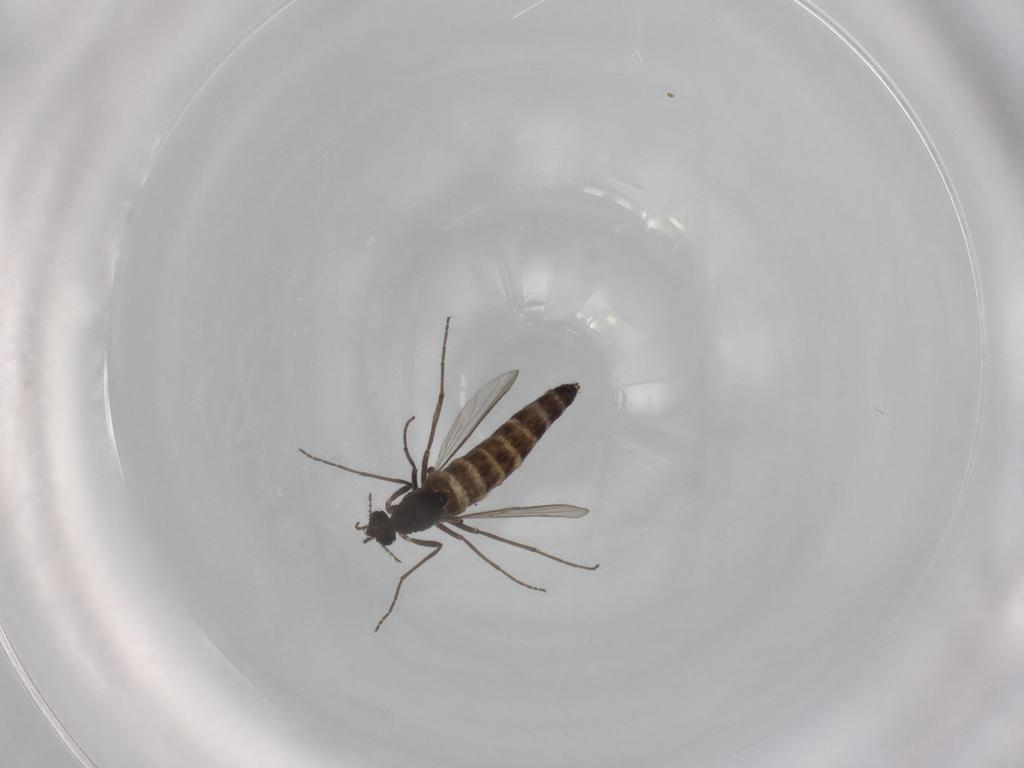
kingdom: Animalia
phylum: Arthropoda
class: Insecta
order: Diptera
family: Chironomidae
